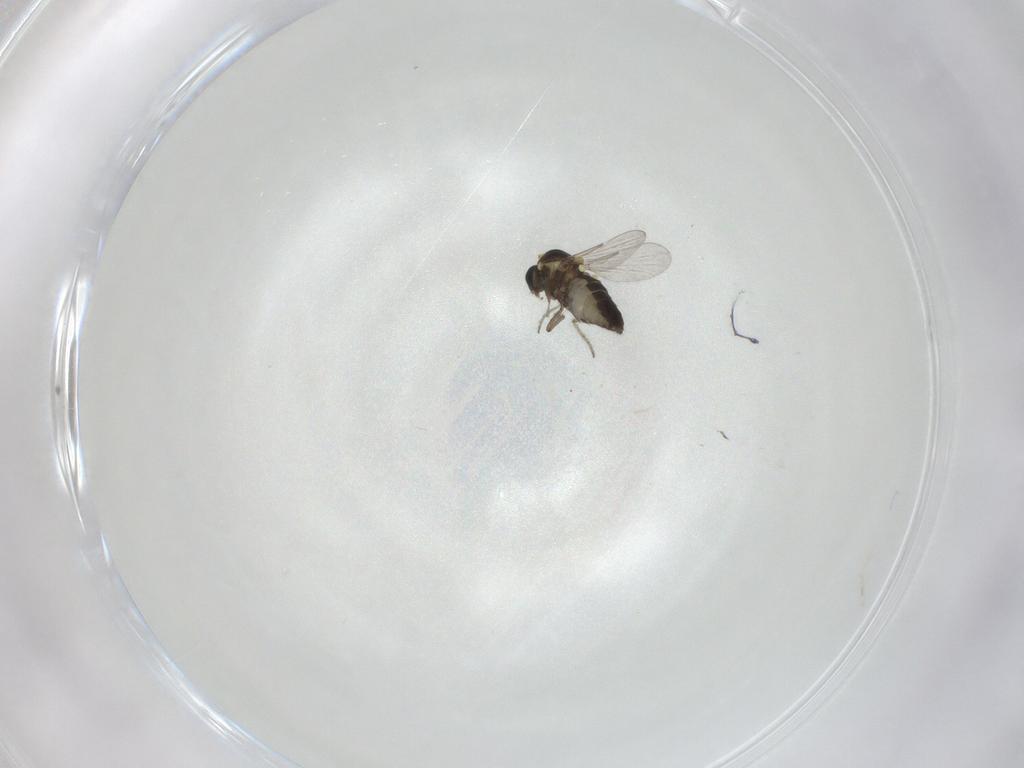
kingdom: Animalia
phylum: Arthropoda
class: Insecta
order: Diptera
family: Ceratopogonidae
